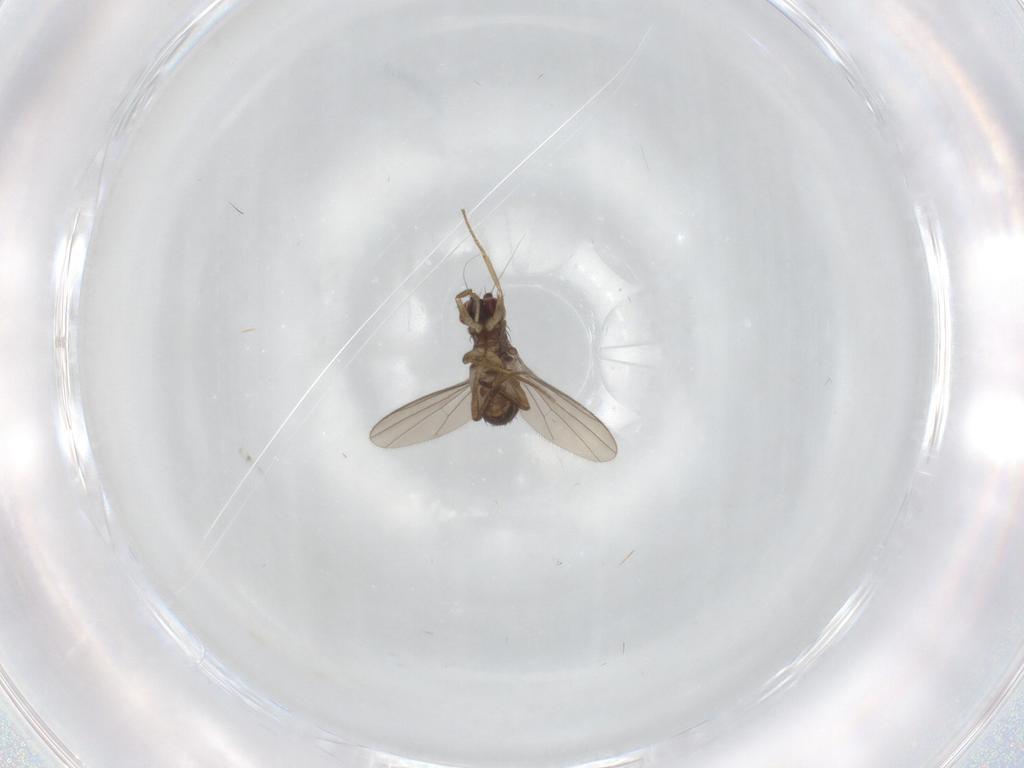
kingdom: Animalia
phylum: Arthropoda
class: Insecta
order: Diptera
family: Dolichopodidae
